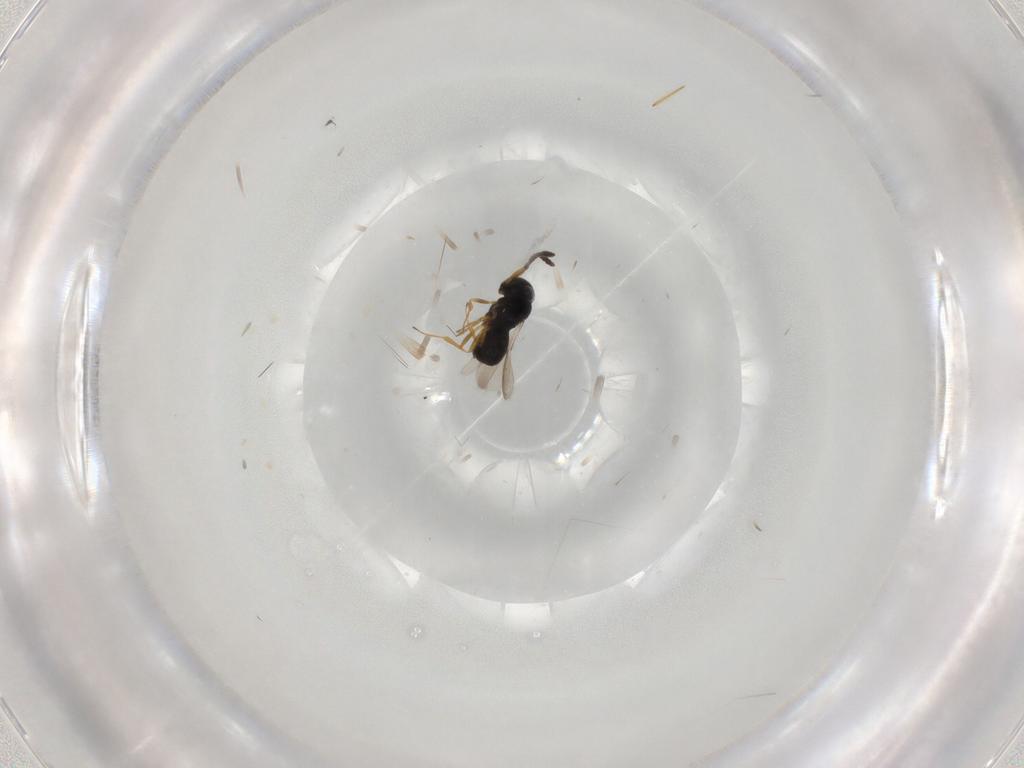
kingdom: Animalia
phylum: Arthropoda
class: Insecta
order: Hymenoptera
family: Scelionidae
